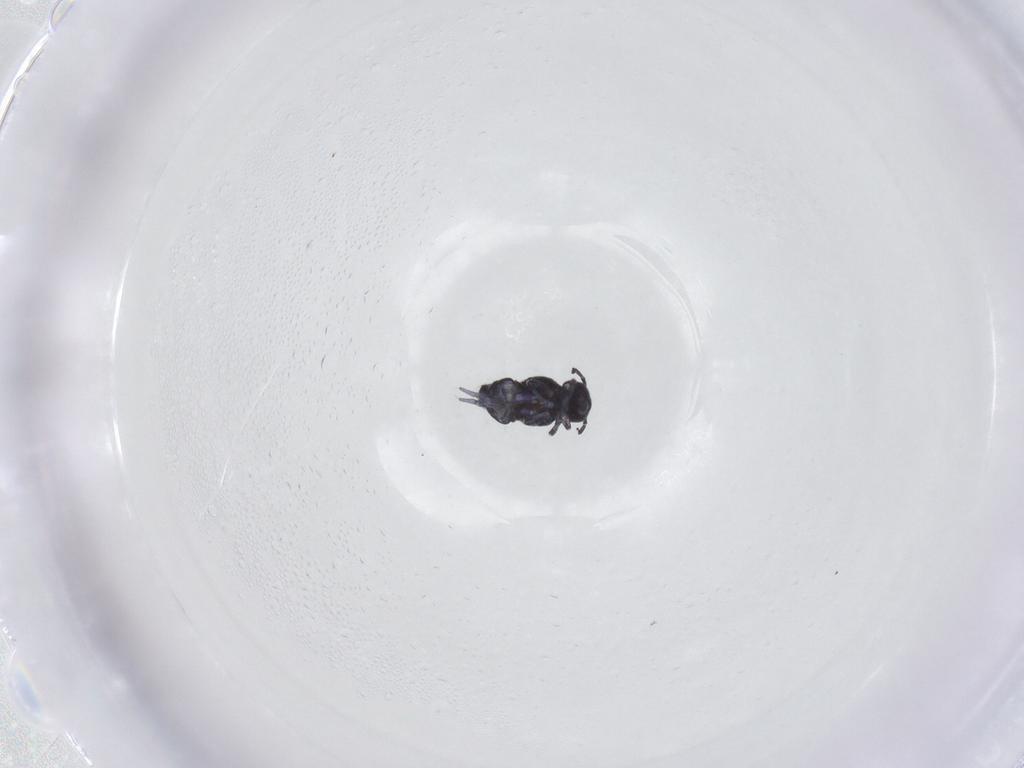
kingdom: Animalia
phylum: Arthropoda
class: Collembola
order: Symphypleona
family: Bourletiellidae
